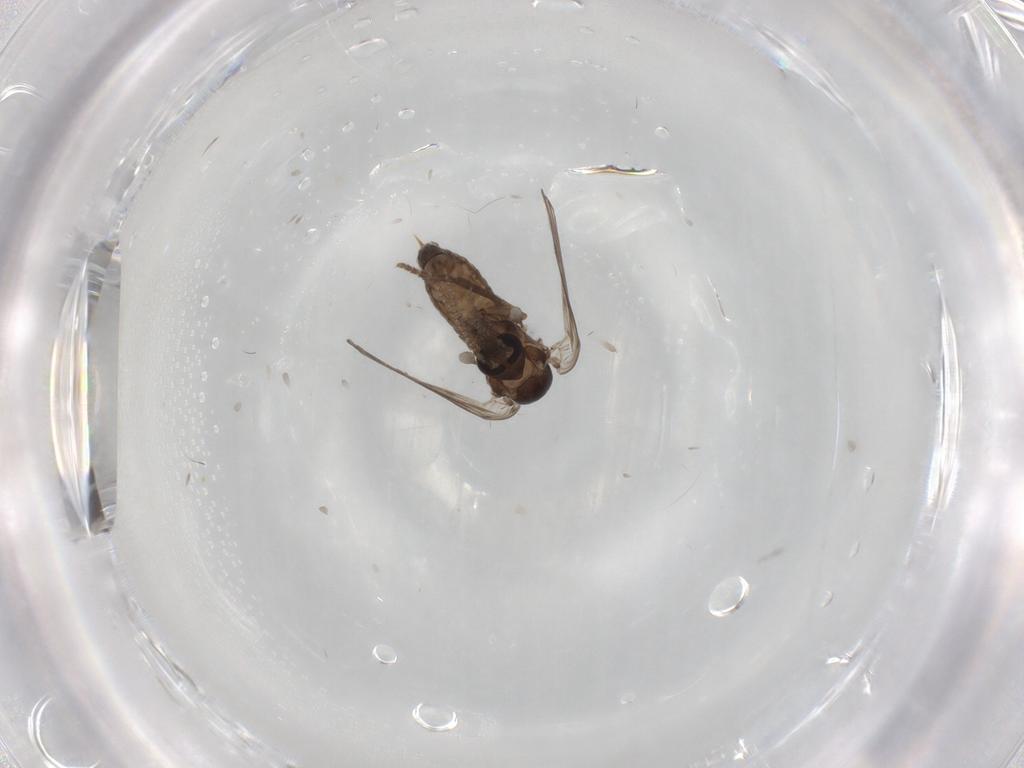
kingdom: Animalia
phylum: Arthropoda
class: Insecta
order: Diptera
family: Psychodidae
